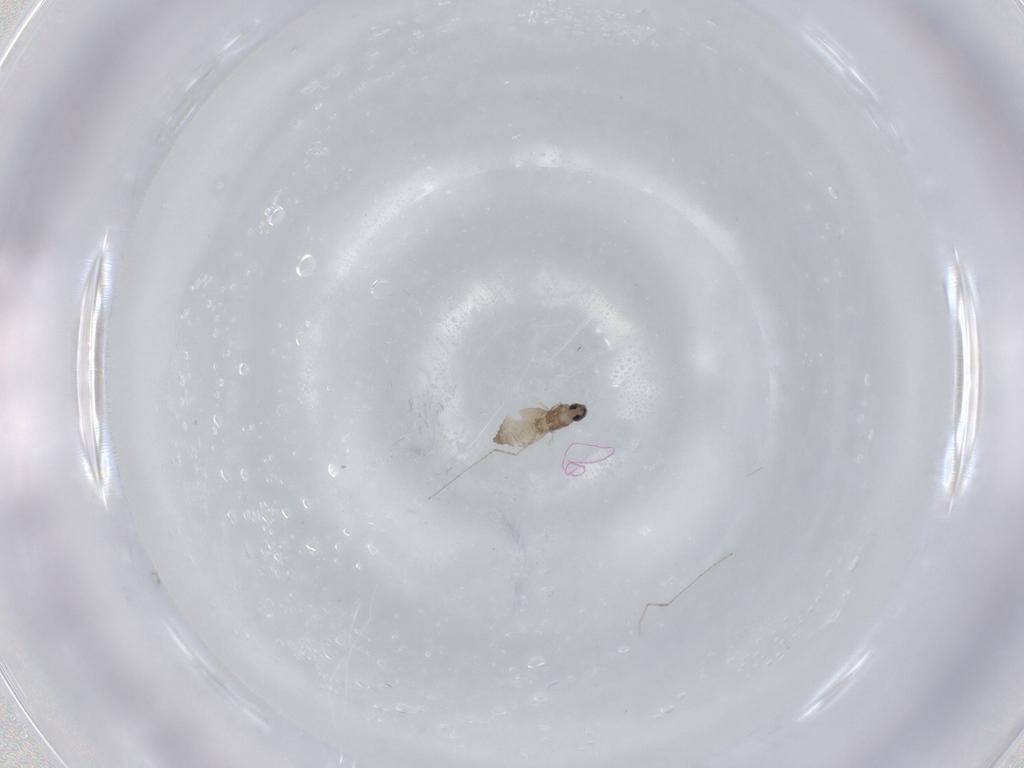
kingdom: Animalia
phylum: Arthropoda
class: Insecta
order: Diptera
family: Cecidomyiidae
